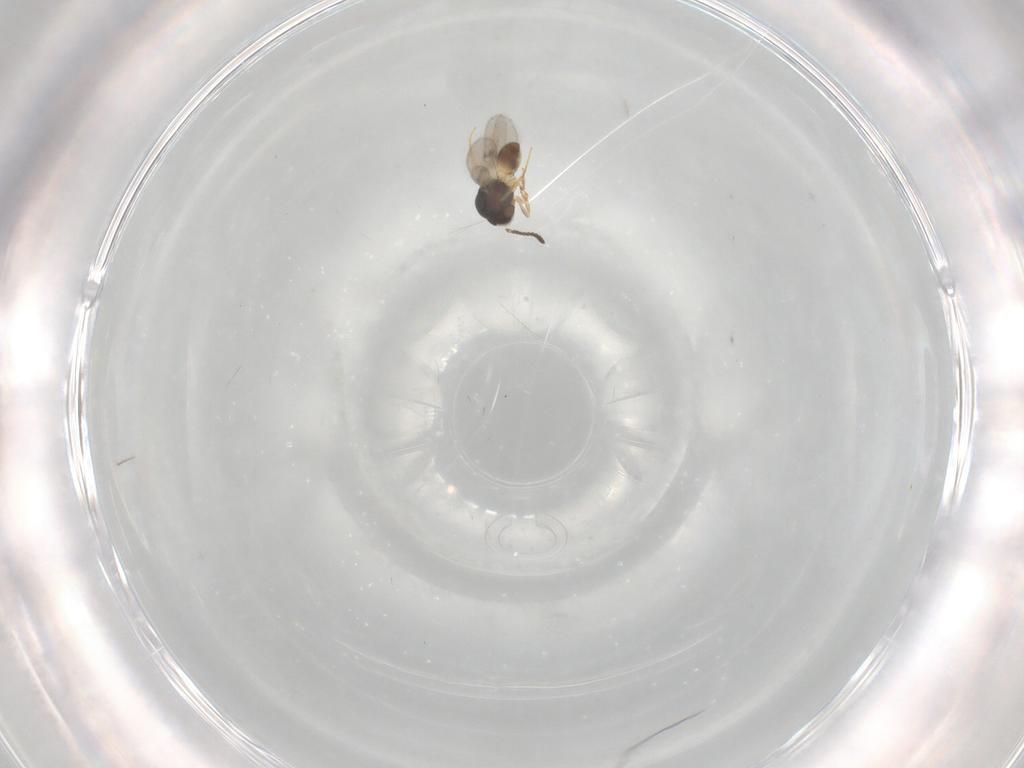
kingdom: Animalia
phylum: Arthropoda
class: Insecta
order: Hymenoptera
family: Scelionidae
